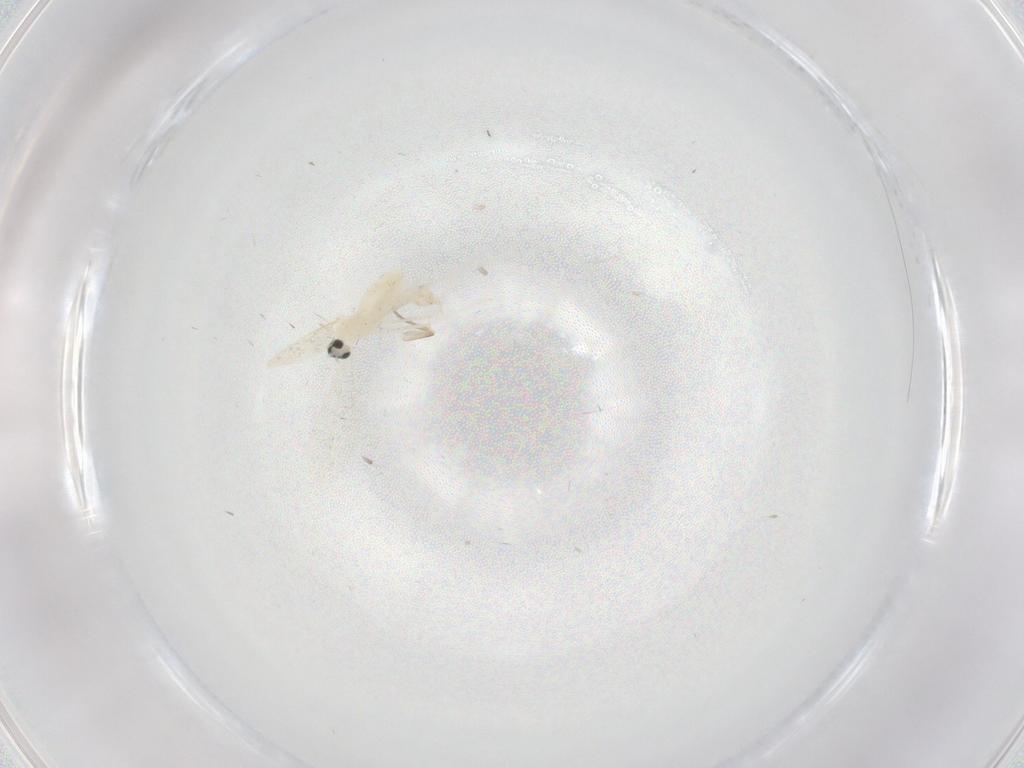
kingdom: Animalia
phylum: Arthropoda
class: Insecta
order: Diptera
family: Cecidomyiidae
